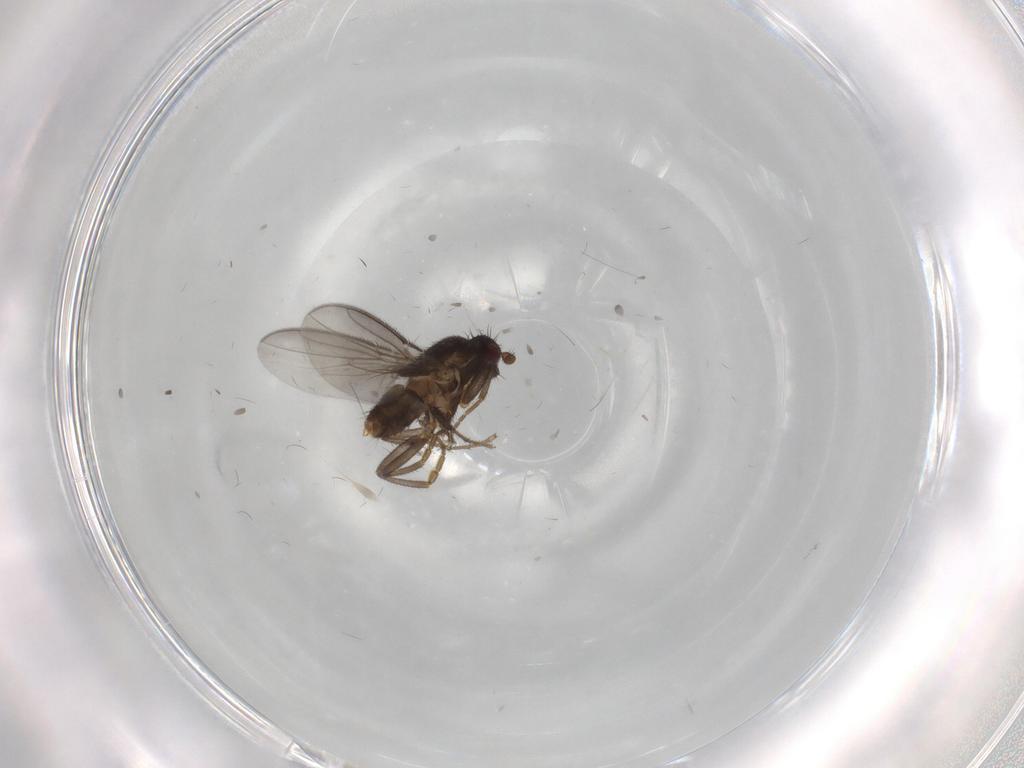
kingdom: Animalia
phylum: Arthropoda
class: Insecta
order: Diptera
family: Sphaeroceridae
